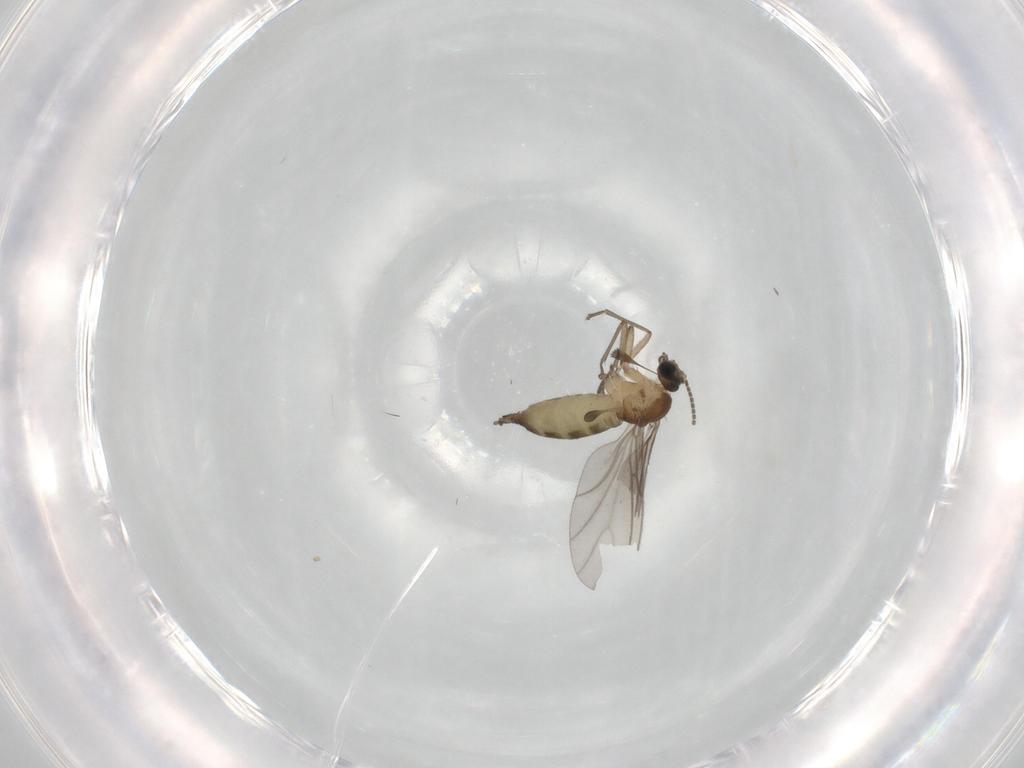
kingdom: Animalia
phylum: Arthropoda
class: Insecta
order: Diptera
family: Sciaridae
